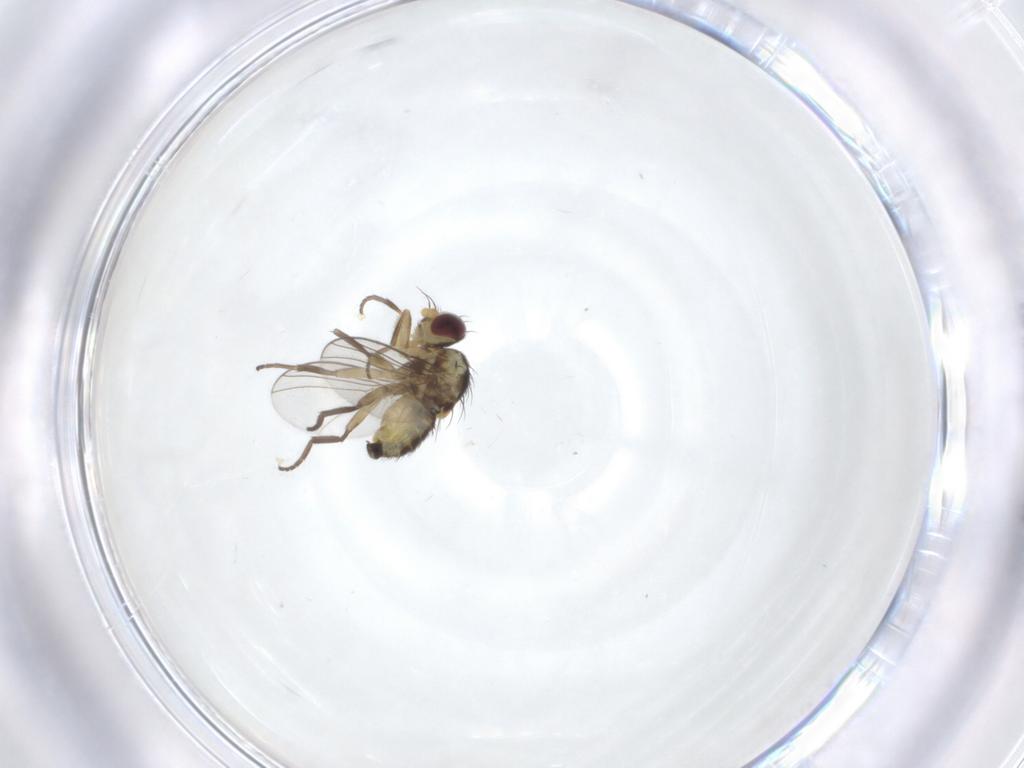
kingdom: Animalia
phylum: Arthropoda
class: Insecta
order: Diptera
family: Agromyzidae
